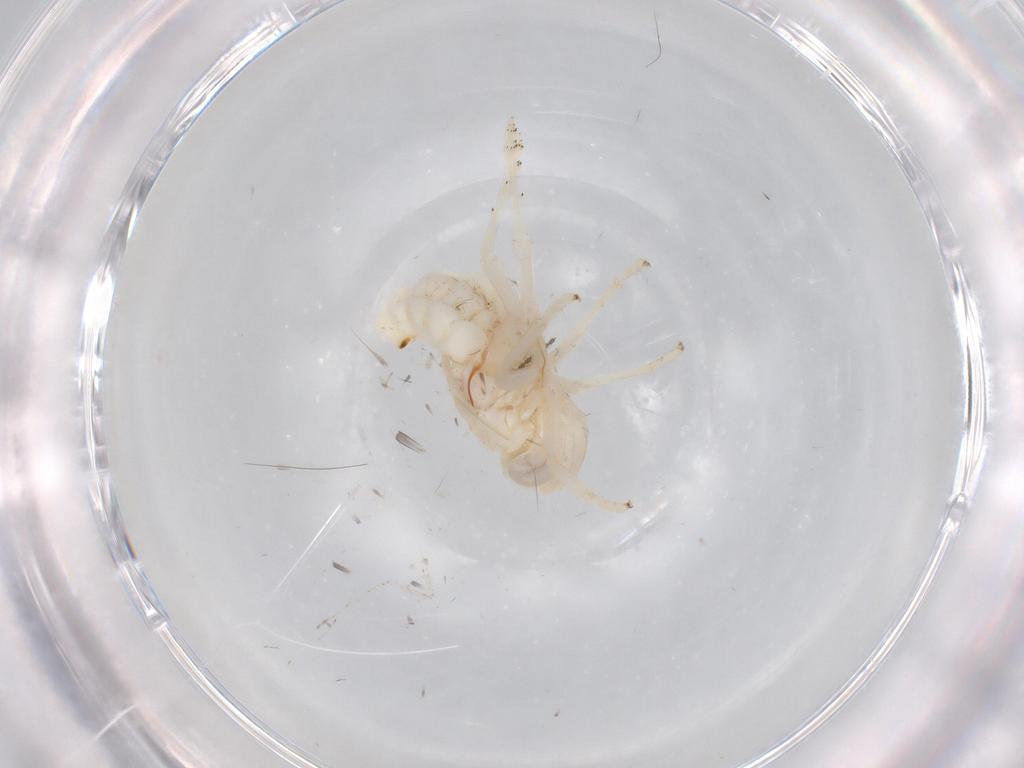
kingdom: Animalia
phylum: Arthropoda
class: Insecta
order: Hemiptera
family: Nogodinidae
